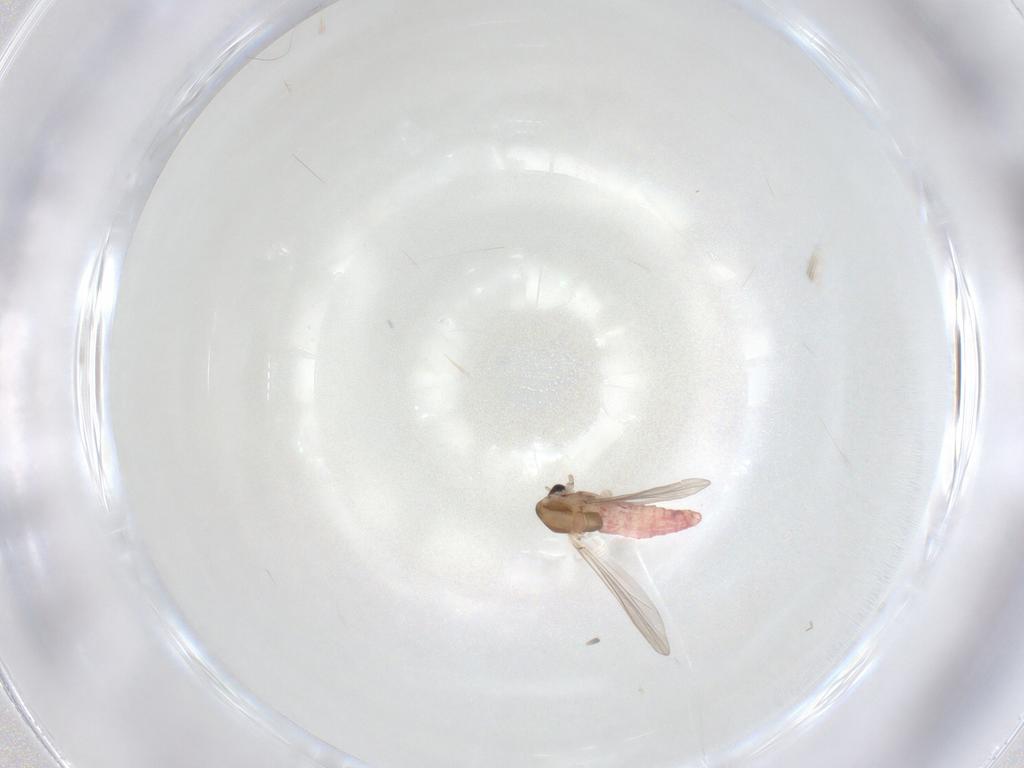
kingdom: Animalia
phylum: Arthropoda
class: Insecta
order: Diptera
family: Chironomidae
